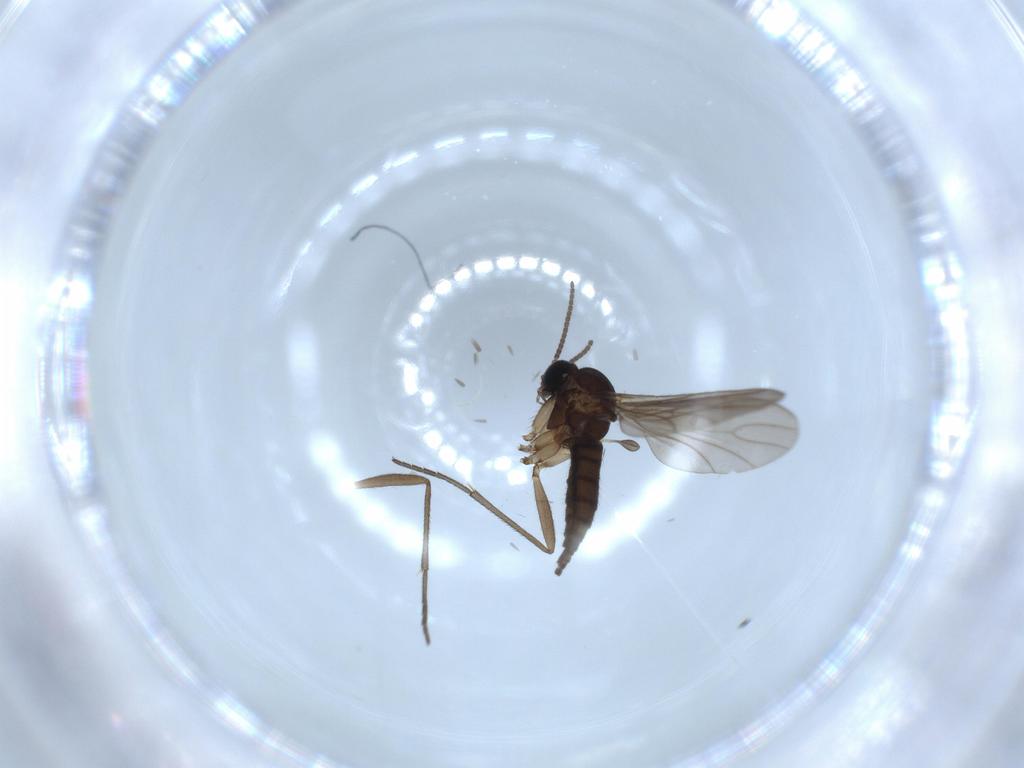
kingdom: Animalia
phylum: Arthropoda
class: Insecta
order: Diptera
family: Sciaridae
